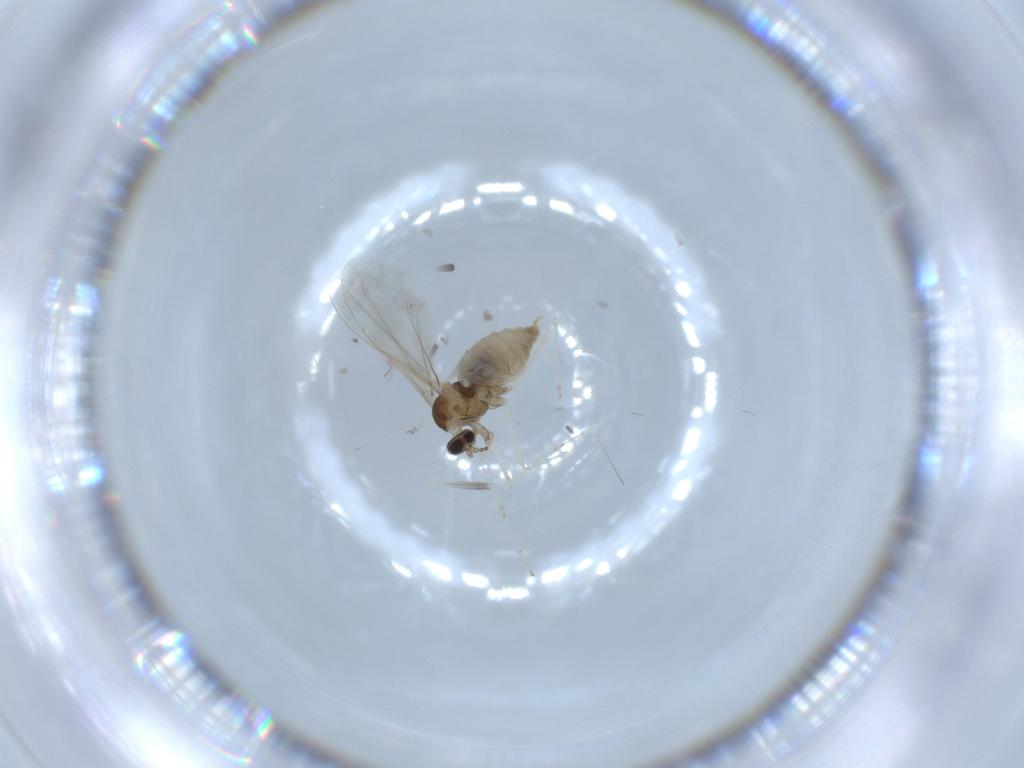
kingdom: Animalia
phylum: Arthropoda
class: Insecta
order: Diptera
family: Cecidomyiidae
